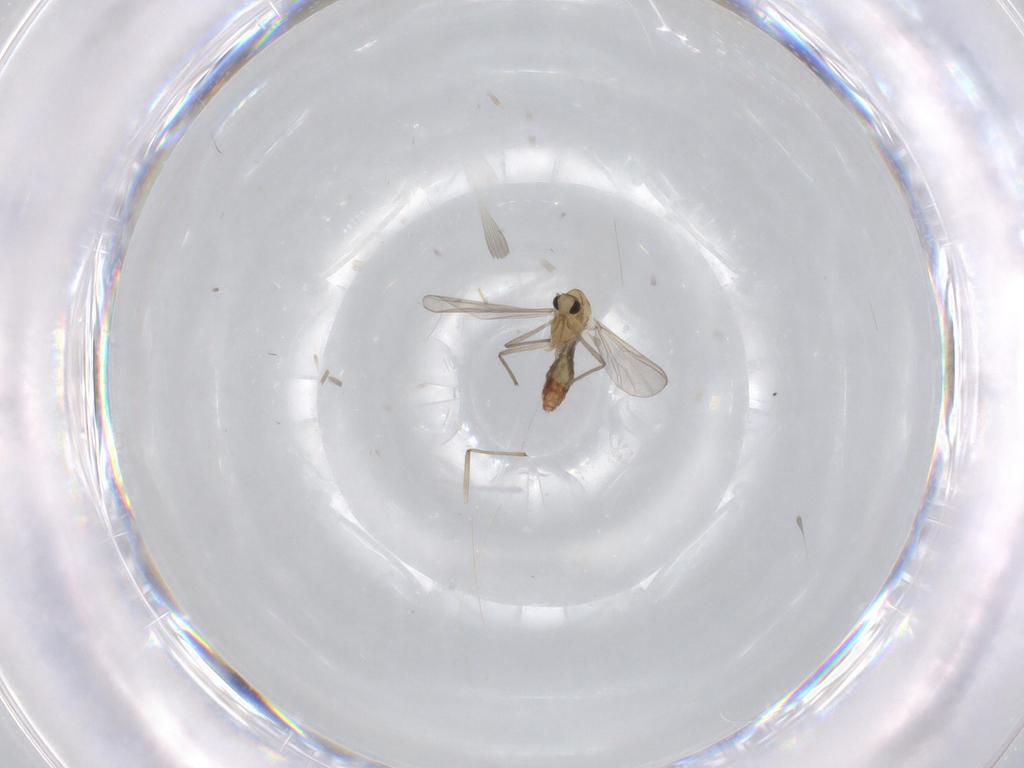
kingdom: Animalia
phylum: Arthropoda
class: Insecta
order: Diptera
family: Chironomidae
